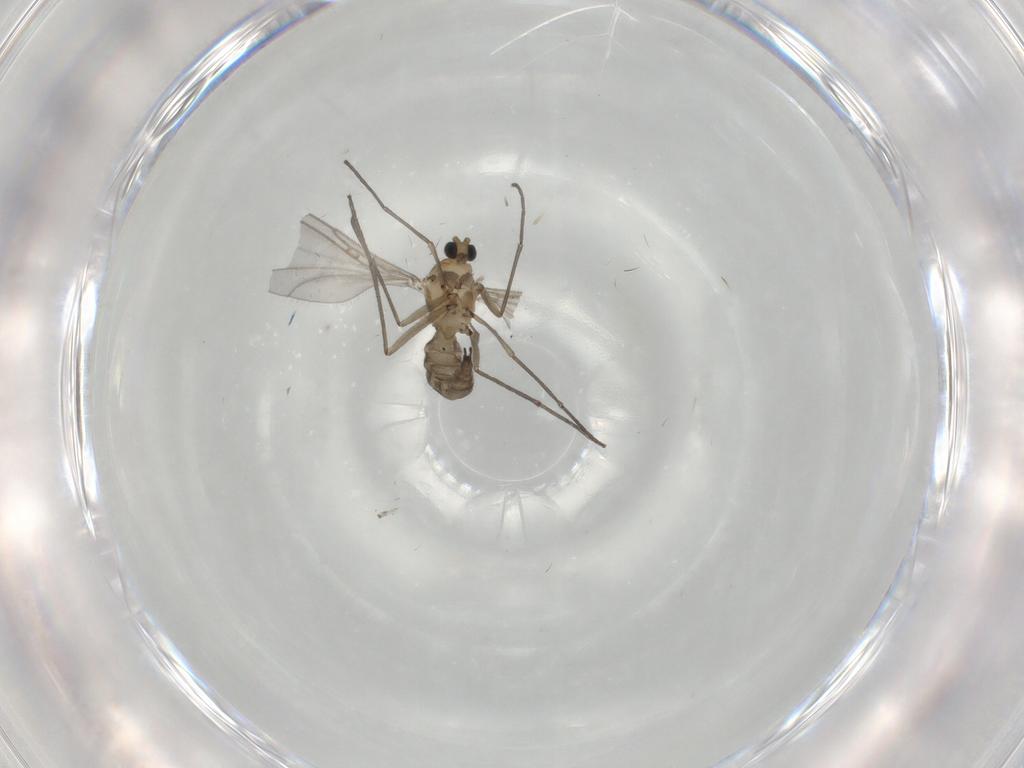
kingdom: Animalia
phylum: Arthropoda
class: Insecta
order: Diptera
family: Sciaridae
